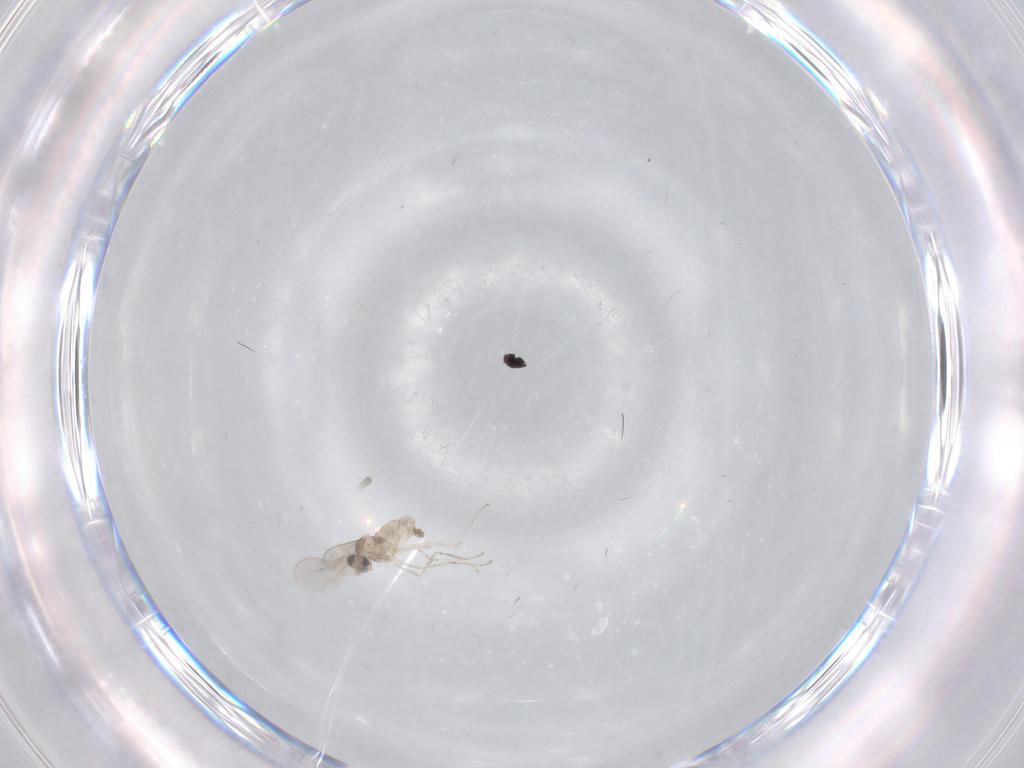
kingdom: Animalia
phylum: Arthropoda
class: Insecta
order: Diptera
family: Cecidomyiidae
